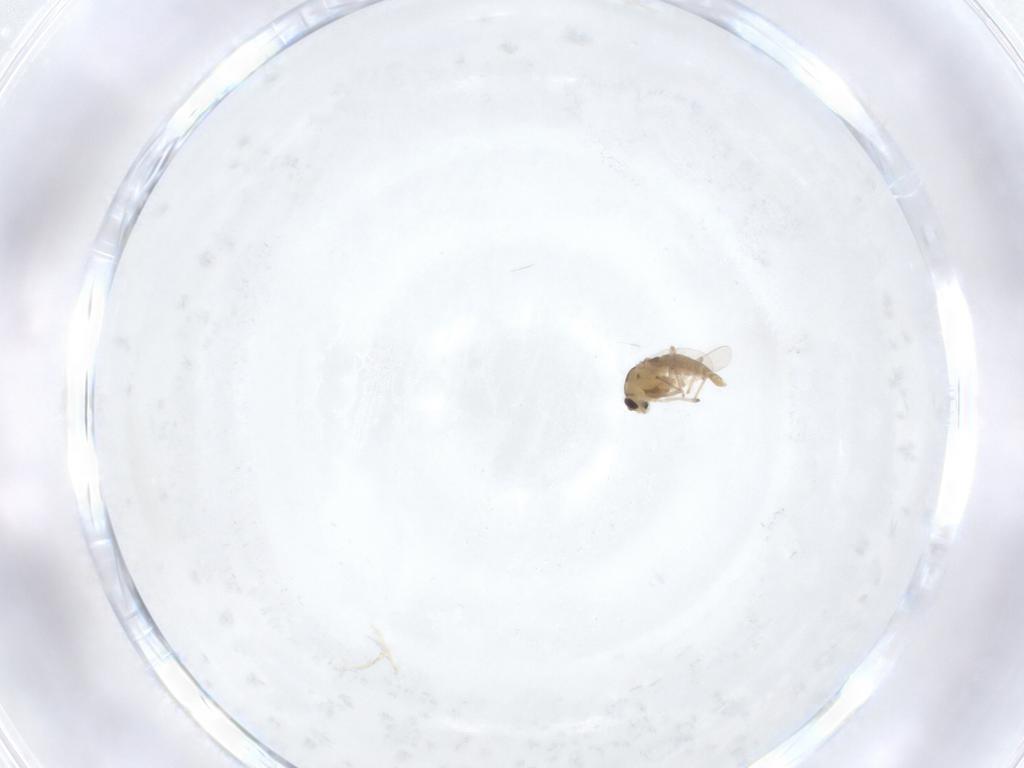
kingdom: Animalia
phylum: Arthropoda
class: Insecta
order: Diptera
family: Chironomidae
